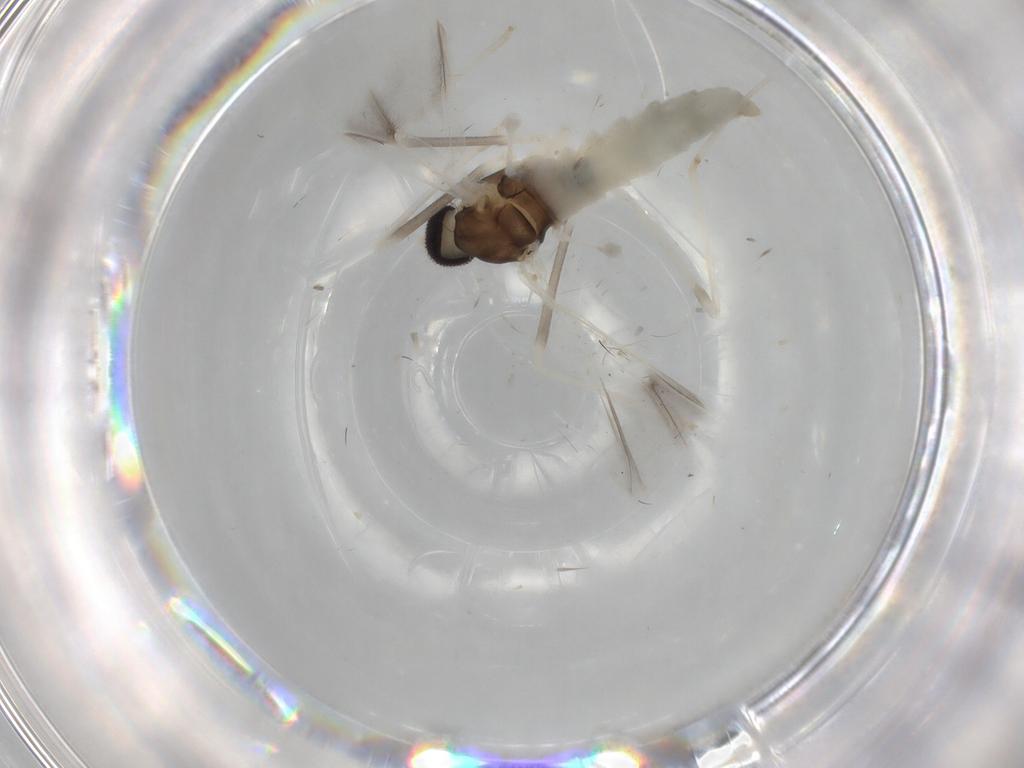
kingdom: Animalia
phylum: Arthropoda
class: Insecta
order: Diptera
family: Cecidomyiidae
